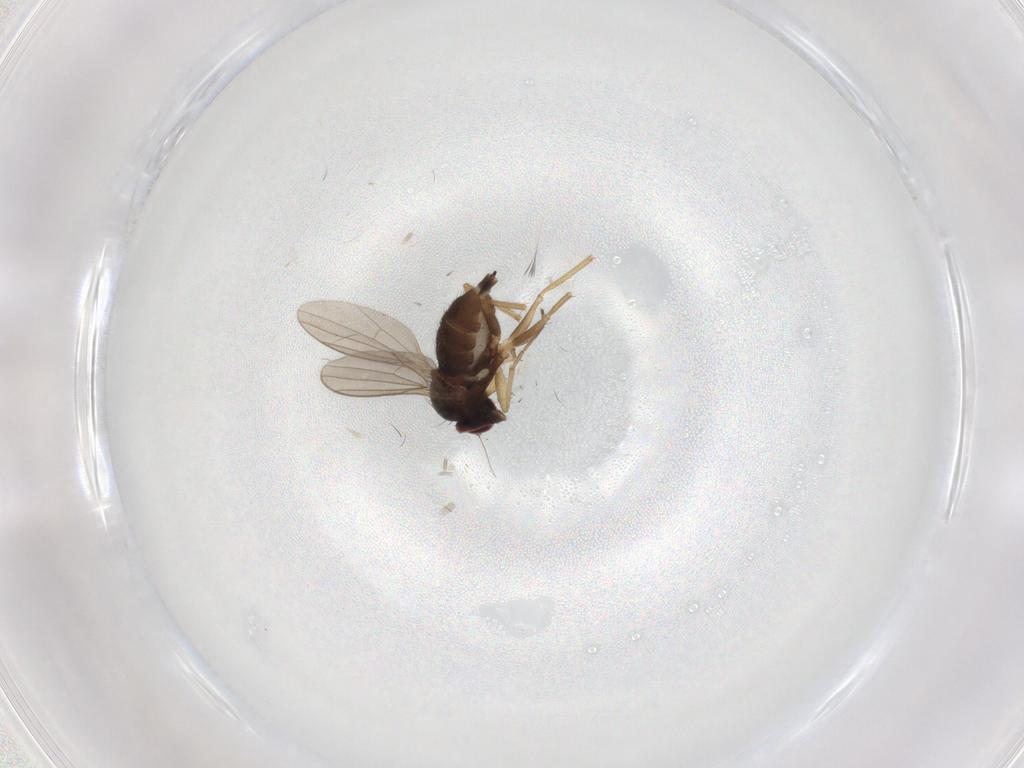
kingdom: Animalia
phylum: Arthropoda
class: Insecta
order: Diptera
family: Dolichopodidae
